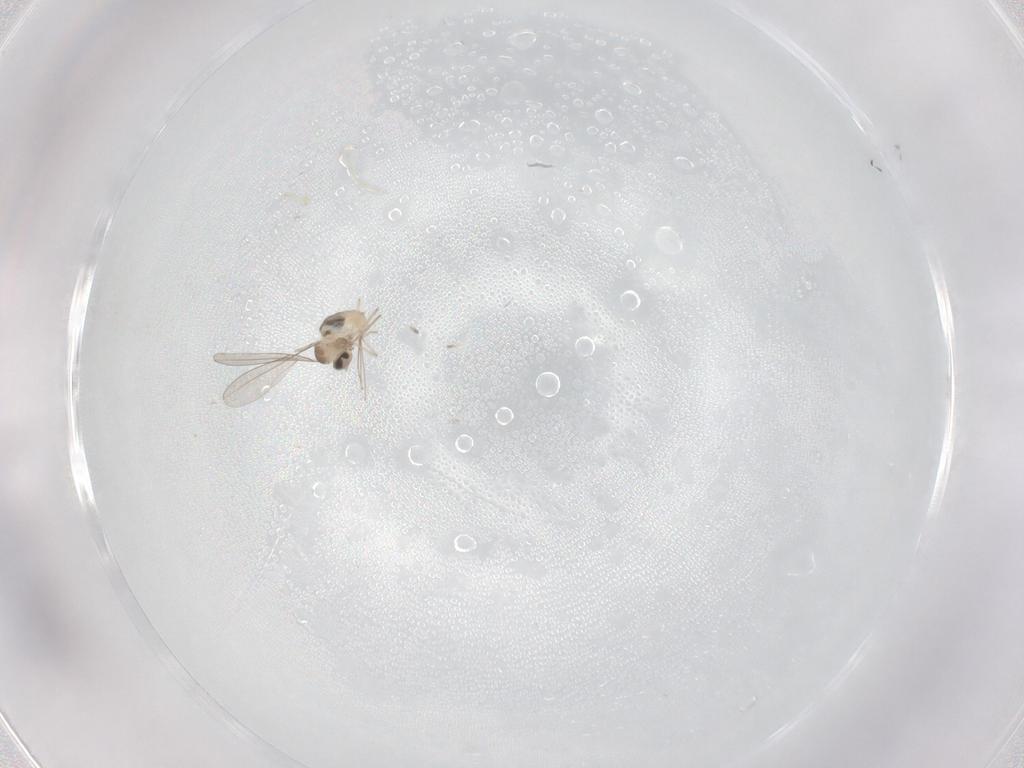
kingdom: Animalia
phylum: Arthropoda
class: Insecta
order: Diptera
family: Cecidomyiidae
